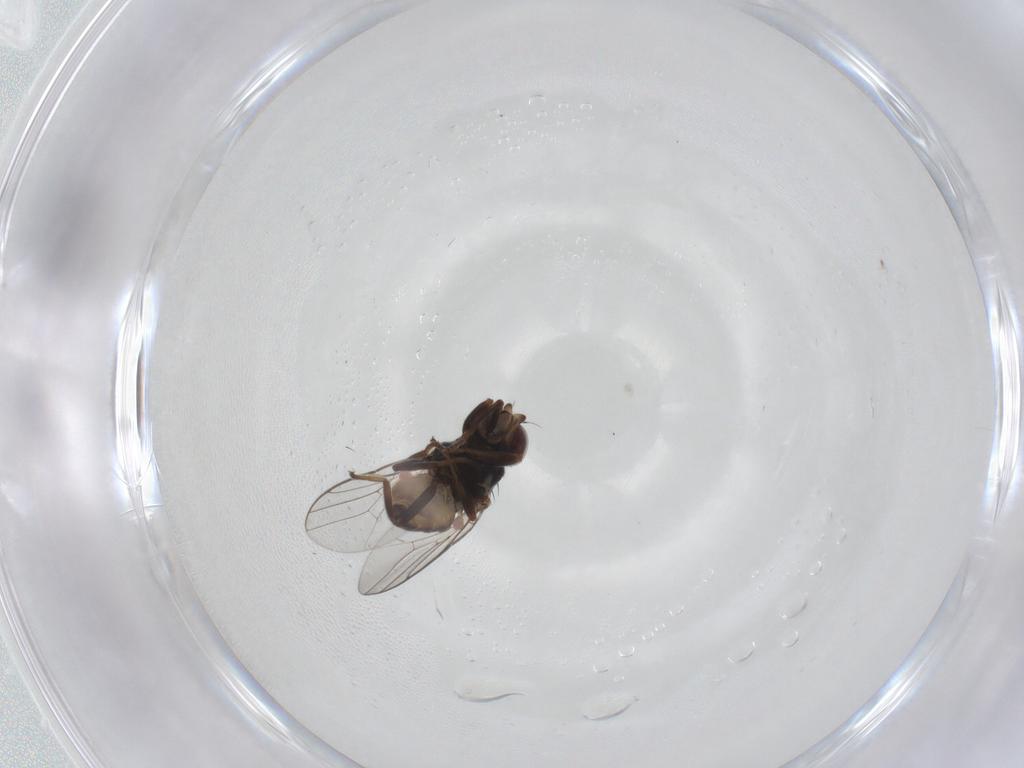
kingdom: Animalia
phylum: Arthropoda
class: Insecta
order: Diptera
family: Chloropidae
